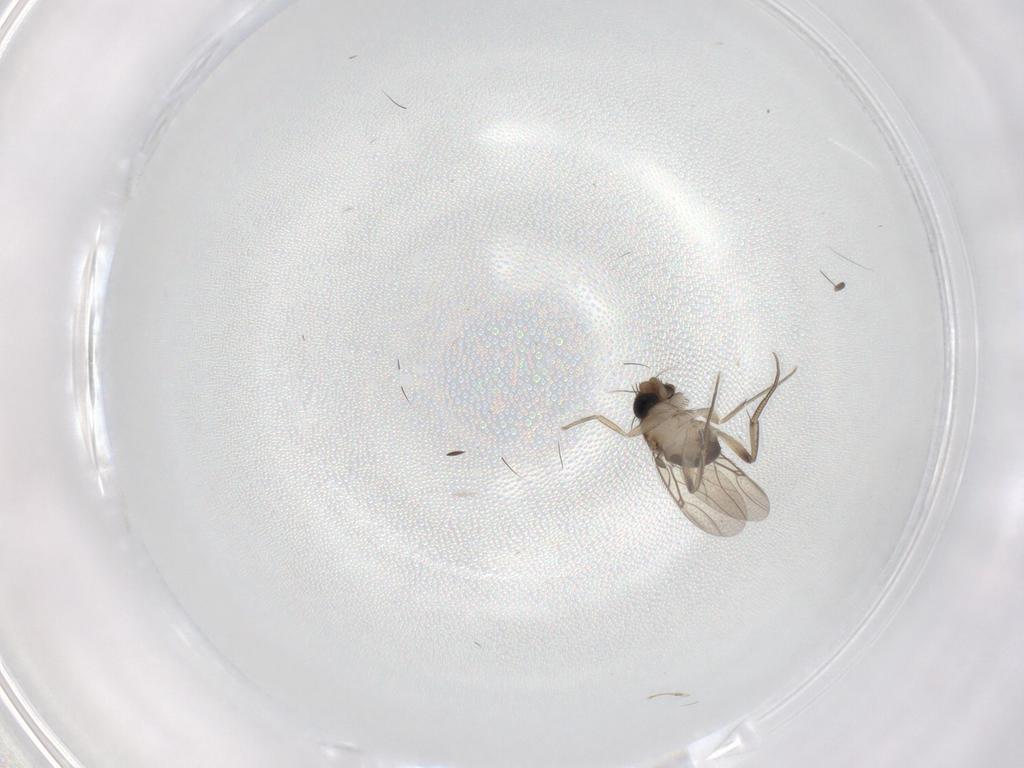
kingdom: Animalia
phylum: Arthropoda
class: Insecta
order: Diptera
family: Phoridae
